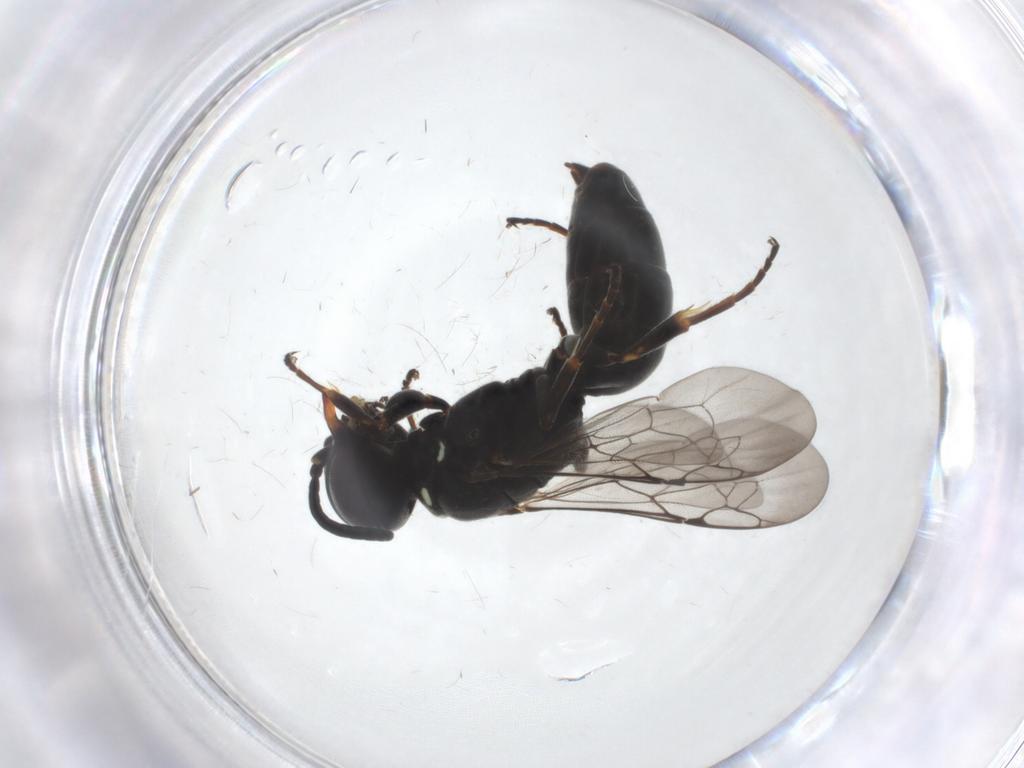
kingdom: Animalia
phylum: Arthropoda
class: Insecta
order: Hymenoptera
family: Crabronidae
